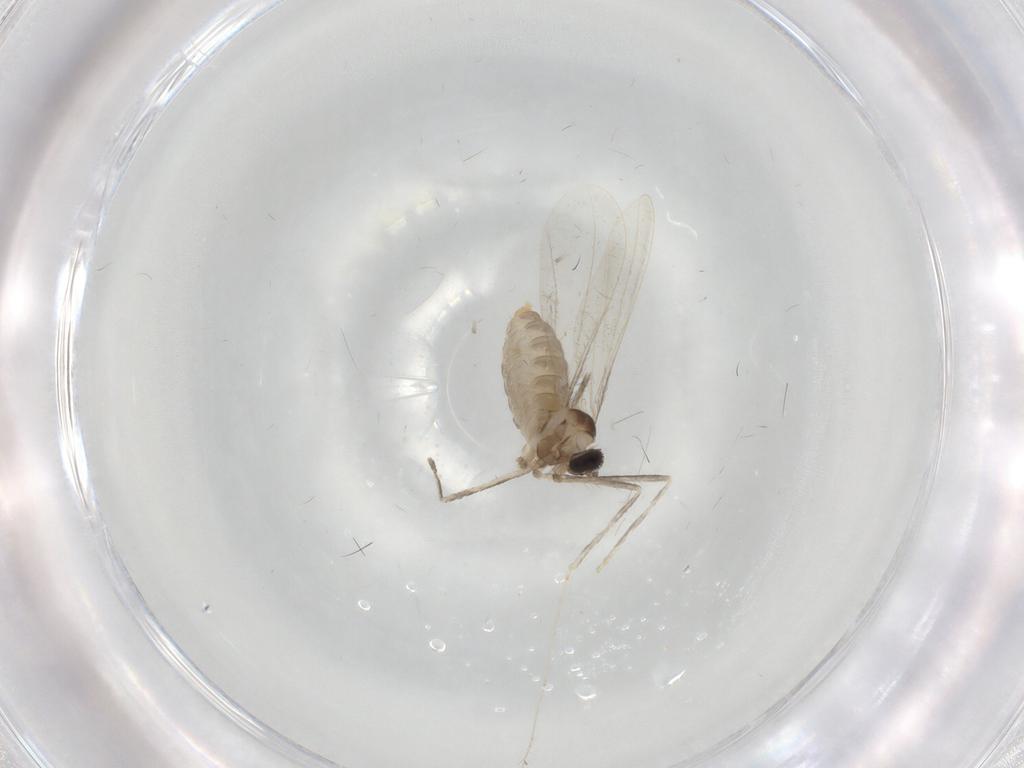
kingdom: Animalia
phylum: Arthropoda
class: Insecta
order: Diptera
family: Cecidomyiidae
